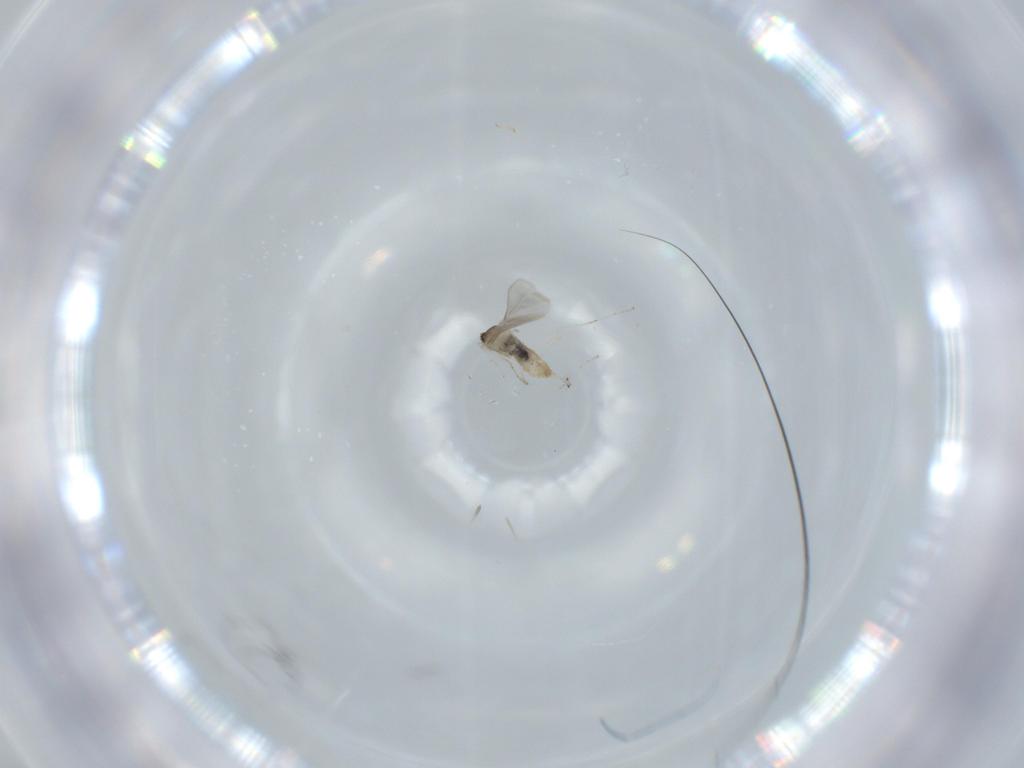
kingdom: Animalia
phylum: Arthropoda
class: Insecta
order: Diptera
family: Cecidomyiidae
